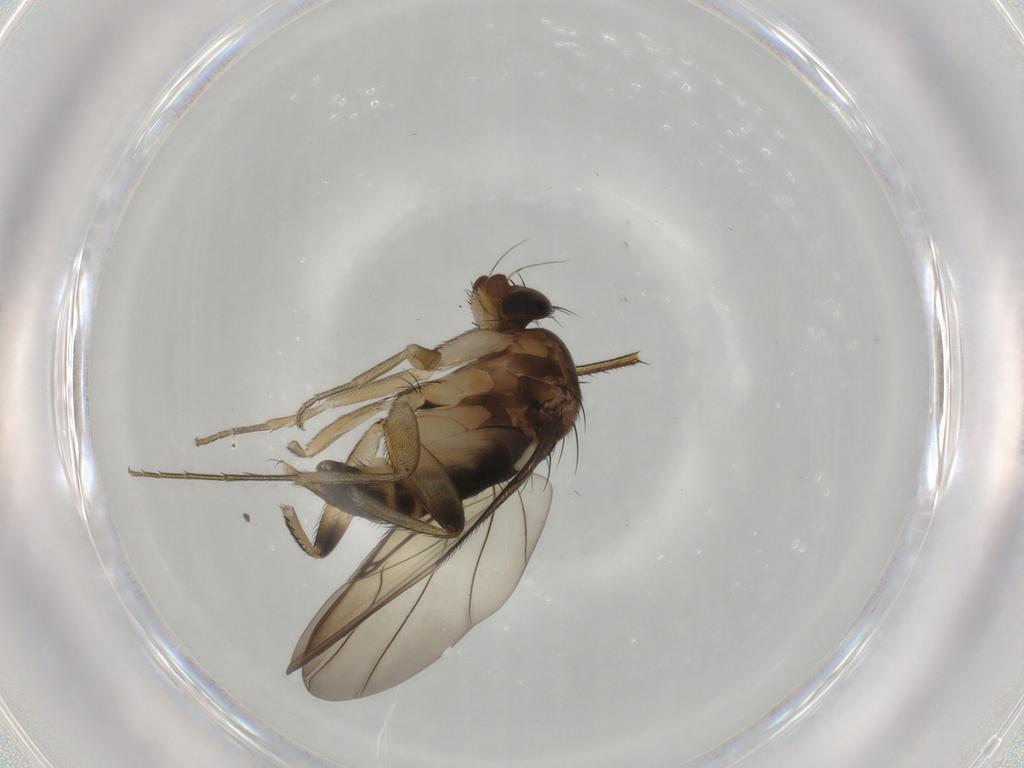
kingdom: Animalia
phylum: Arthropoda
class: Insecta
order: Diptera
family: Phoridae
